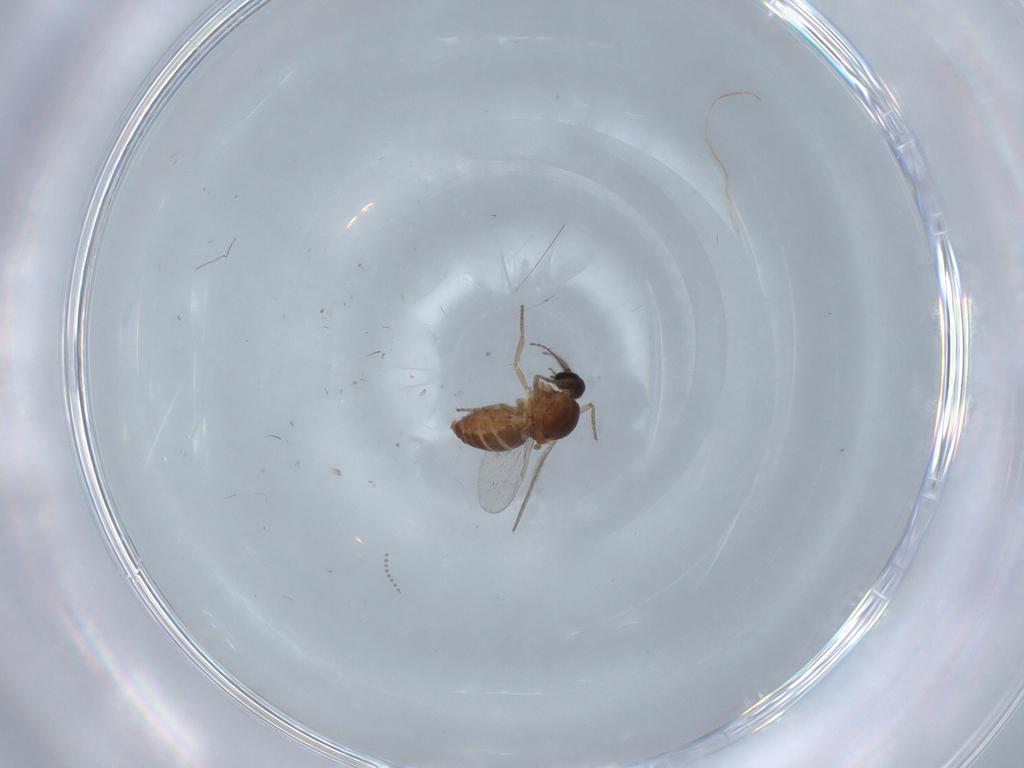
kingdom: Animalia
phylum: Arthropoda
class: Insecta
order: Diptera
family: Ceratopogonidae
